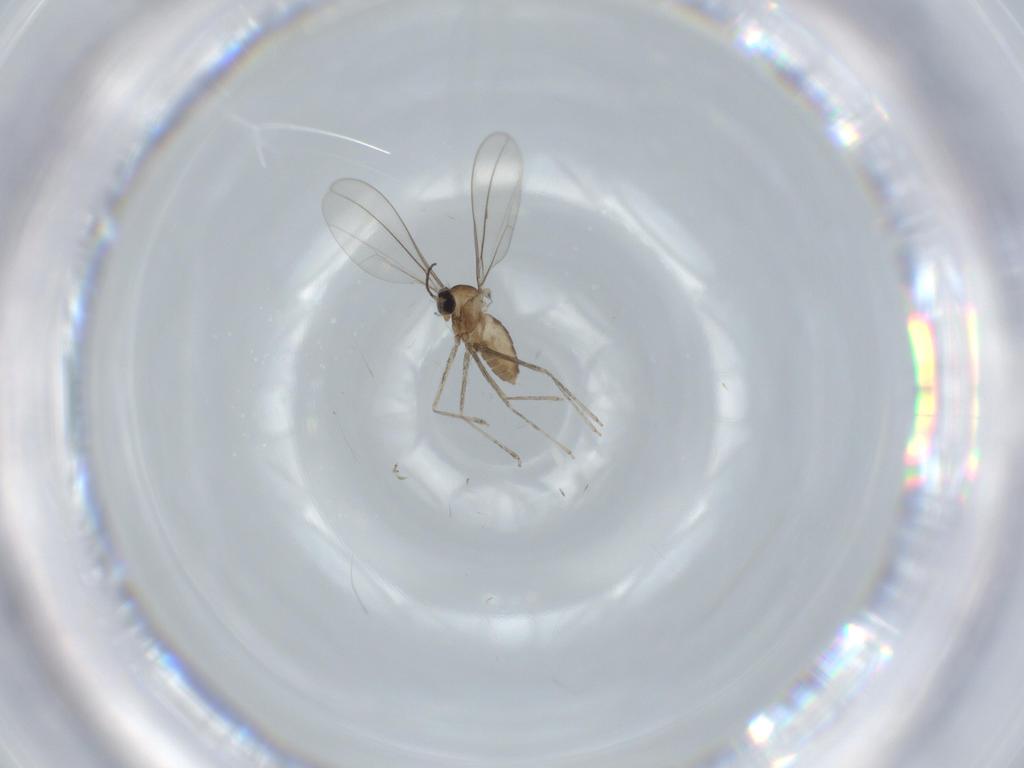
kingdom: Animalia
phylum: Arthropoda
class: Insecta
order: Diptera
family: Cecidomyiidae
